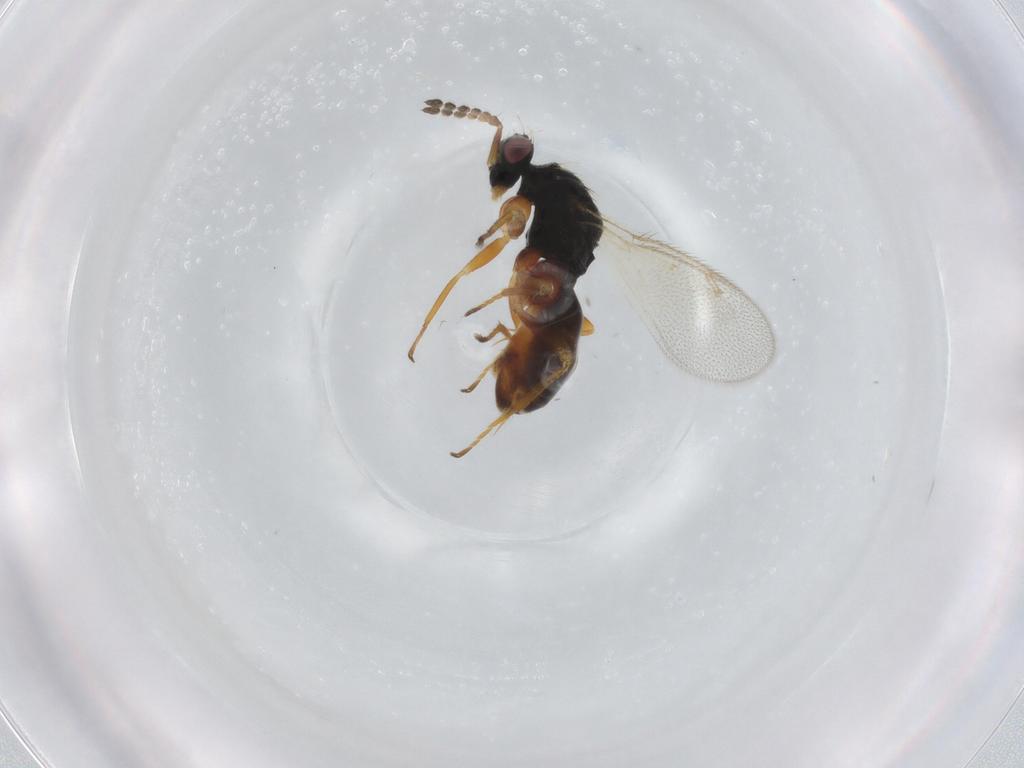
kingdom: Animalia
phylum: Arthropoda
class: Insecta
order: Hymenoptera
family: Eulophidae
